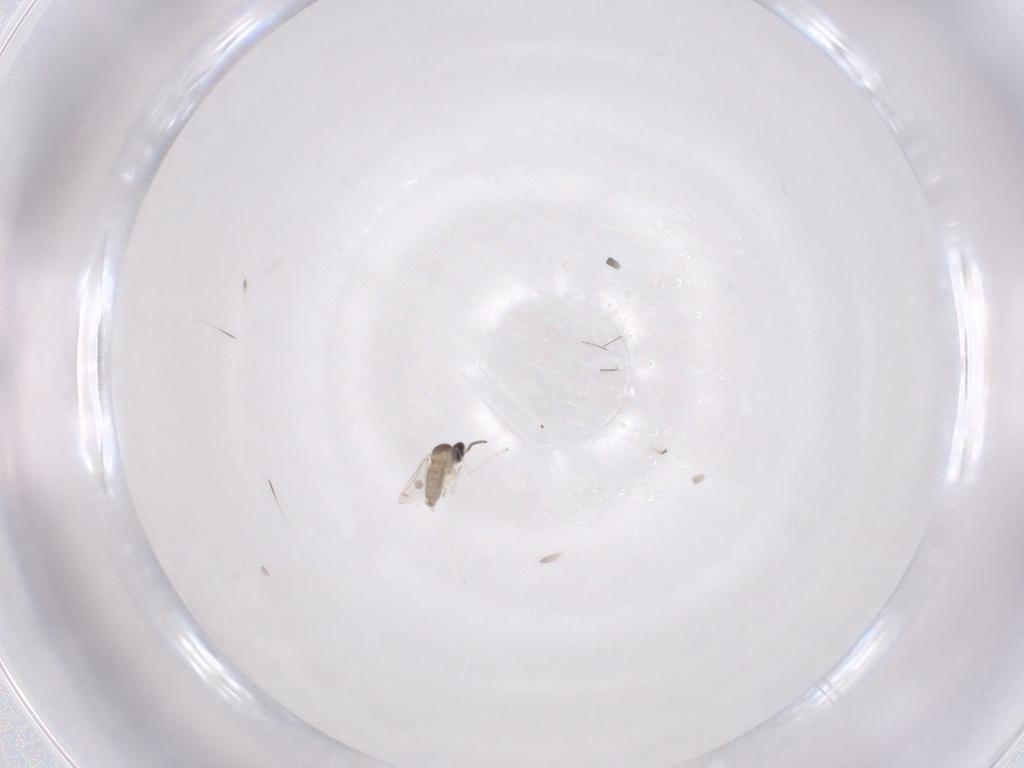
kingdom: Animalia
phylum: Arthropoda
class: Insecta
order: Diptera
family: Cecidomyiidae
